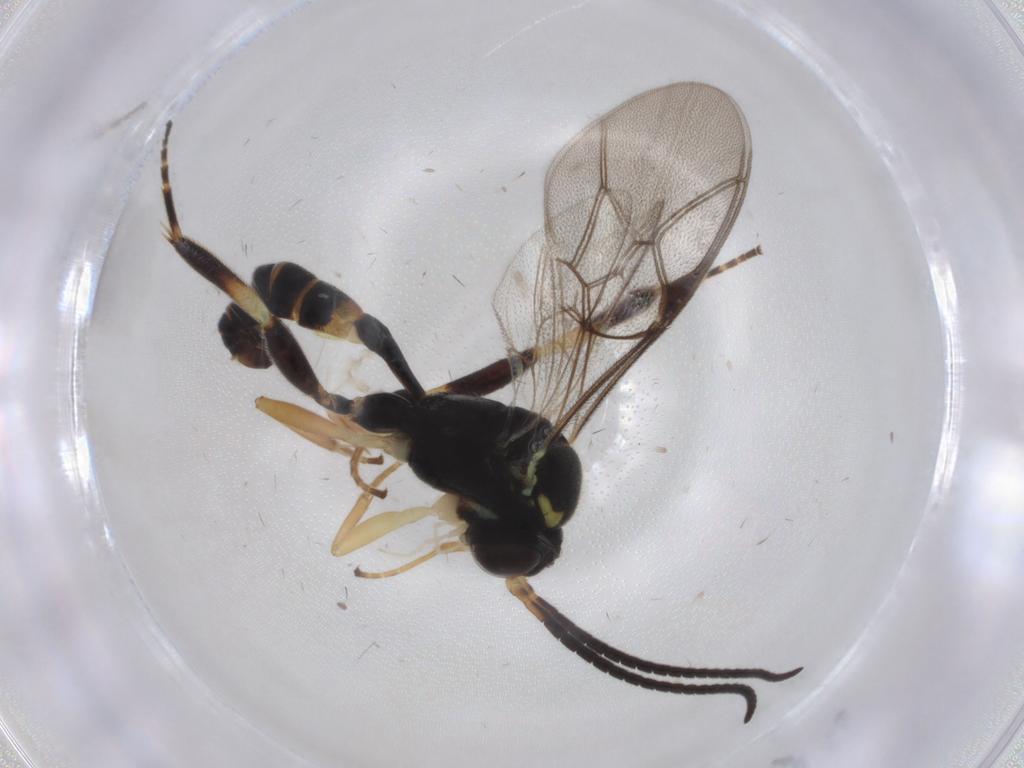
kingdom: Animalia
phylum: Arthropoda
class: Insecta
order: Hymenoptera
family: Ichneumonidae
